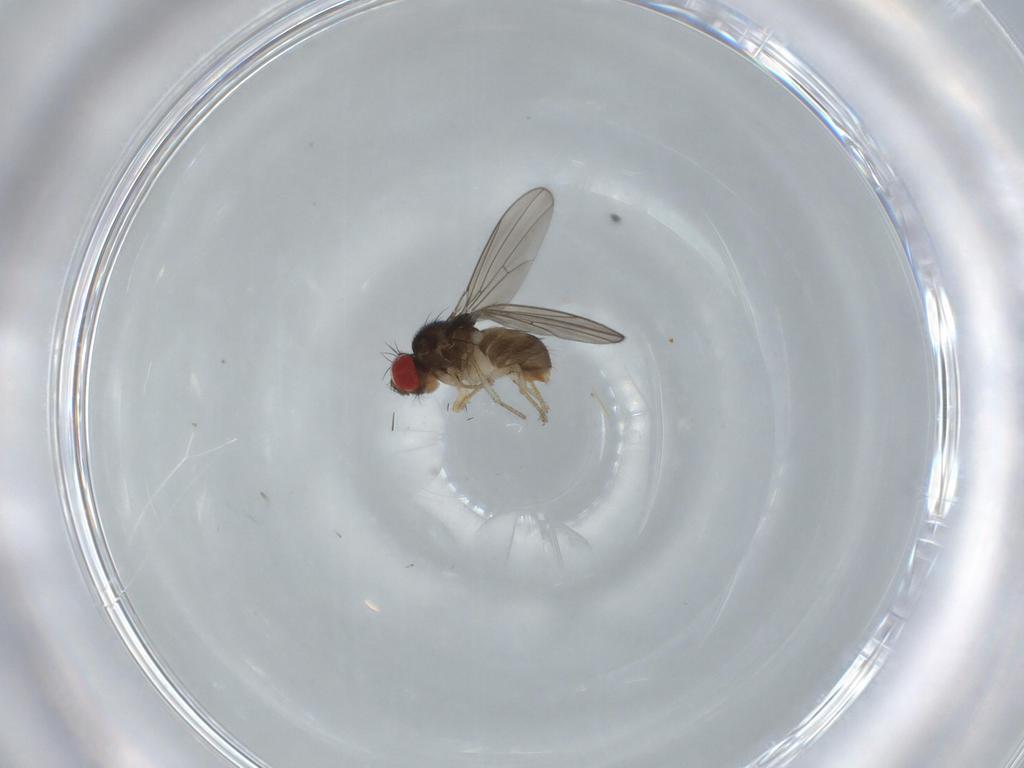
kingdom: Animalia
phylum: Arthropoda
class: Insecta
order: Diptera
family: Drosophilidae
